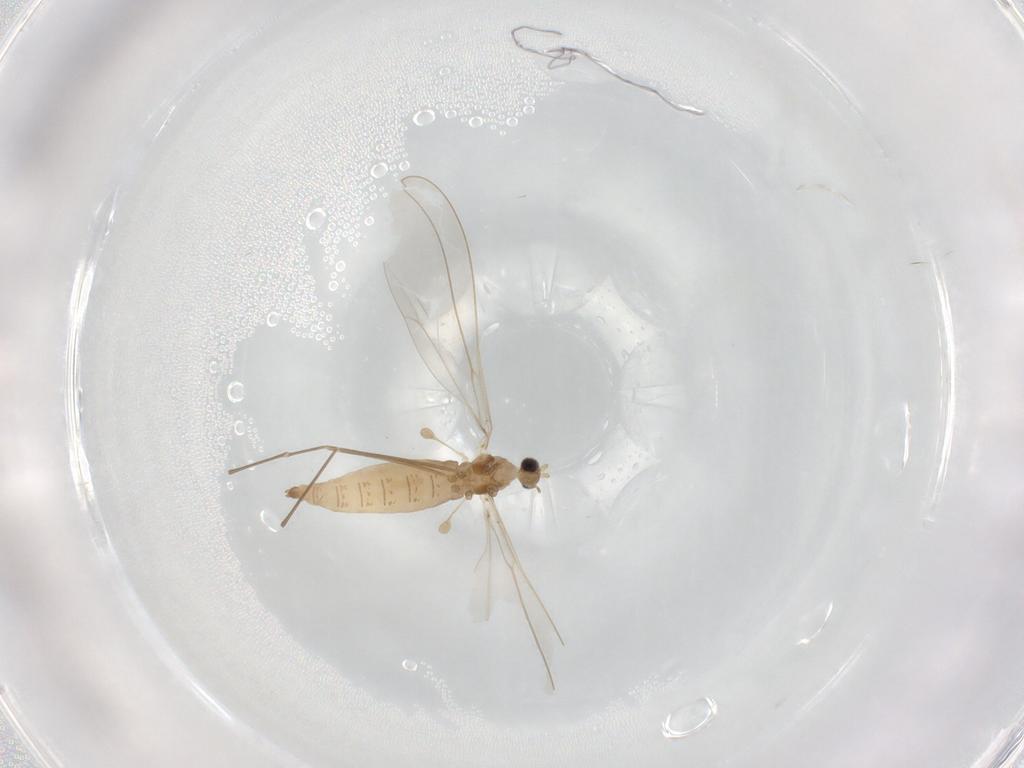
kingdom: Animalia
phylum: Arthropoda
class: Insecta
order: Diptera
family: Cecidomyiidae
